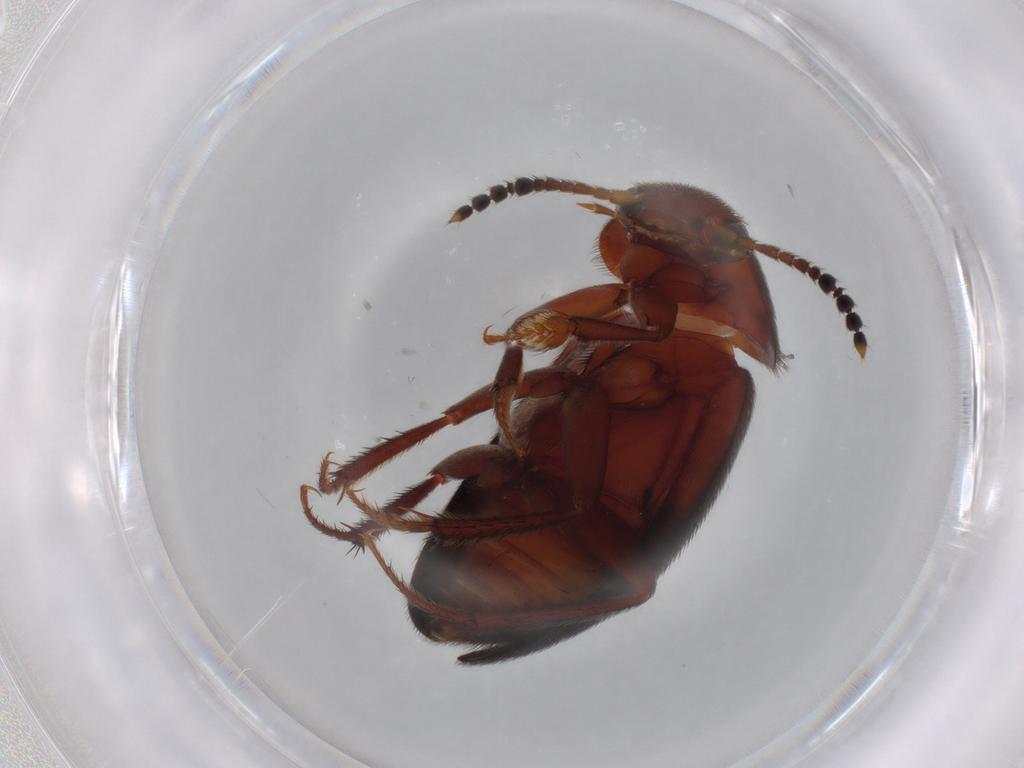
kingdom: Animalia
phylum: Arthropoda
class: Insecta
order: Coleoptera
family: Leiodidae
